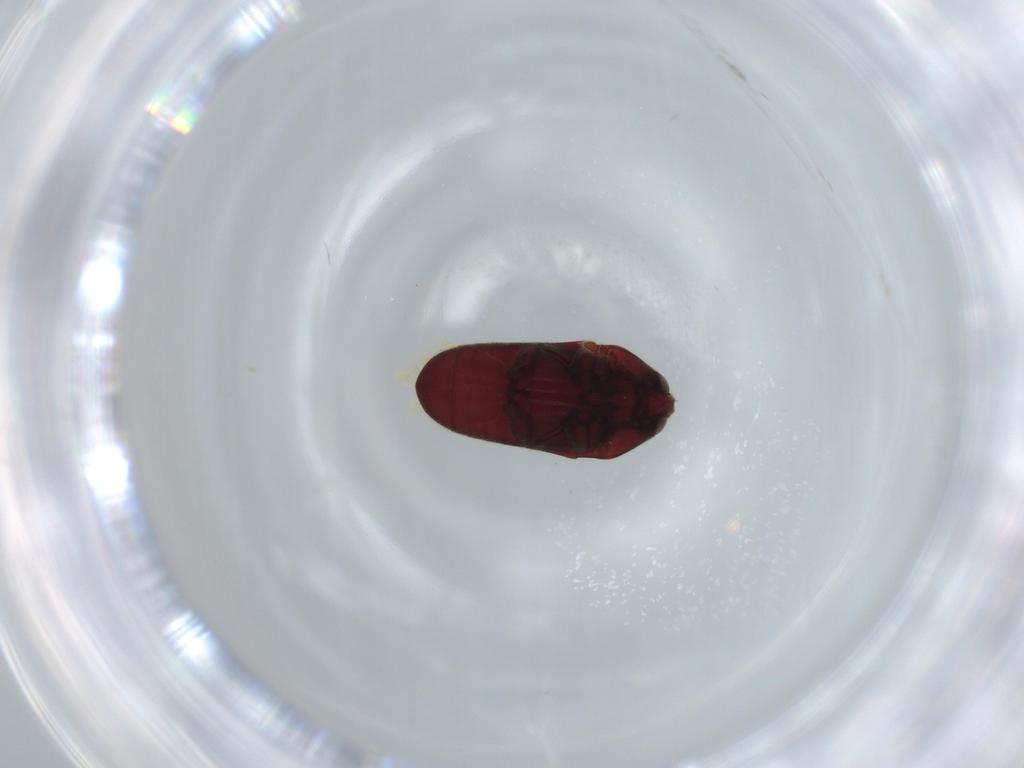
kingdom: Animalia
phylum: Arthropoda
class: Insecta
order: Coleoptera
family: Throscidae
